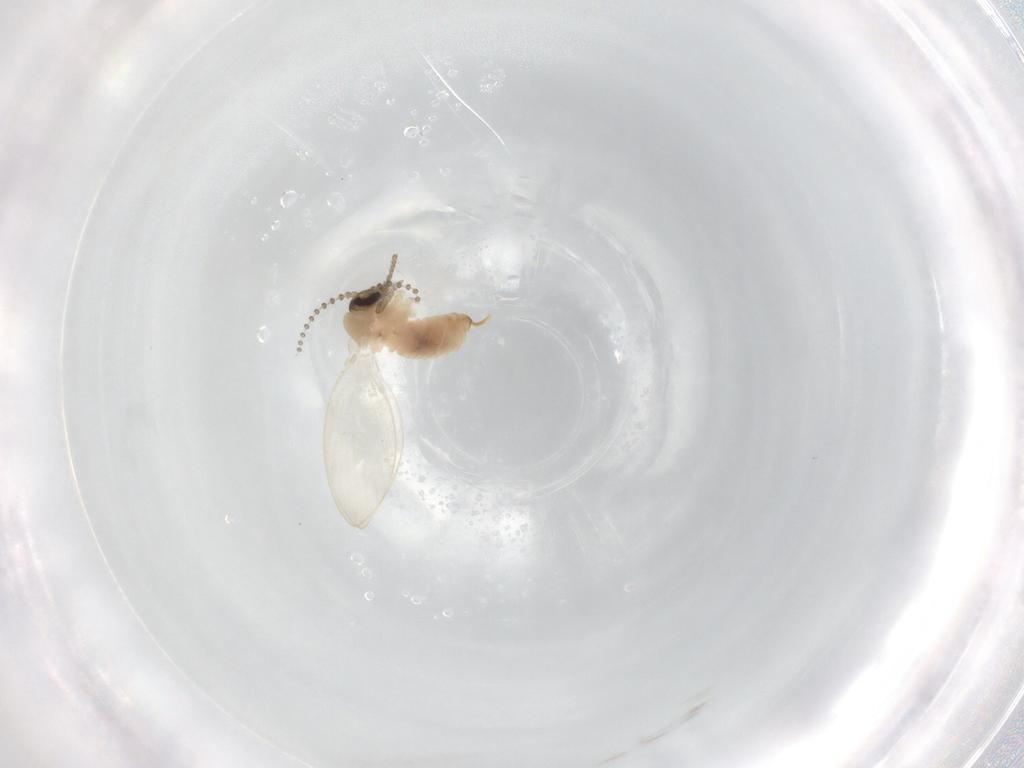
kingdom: Animalia
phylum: Arthropoda
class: Insecta
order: Diptera
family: Psychodidae
